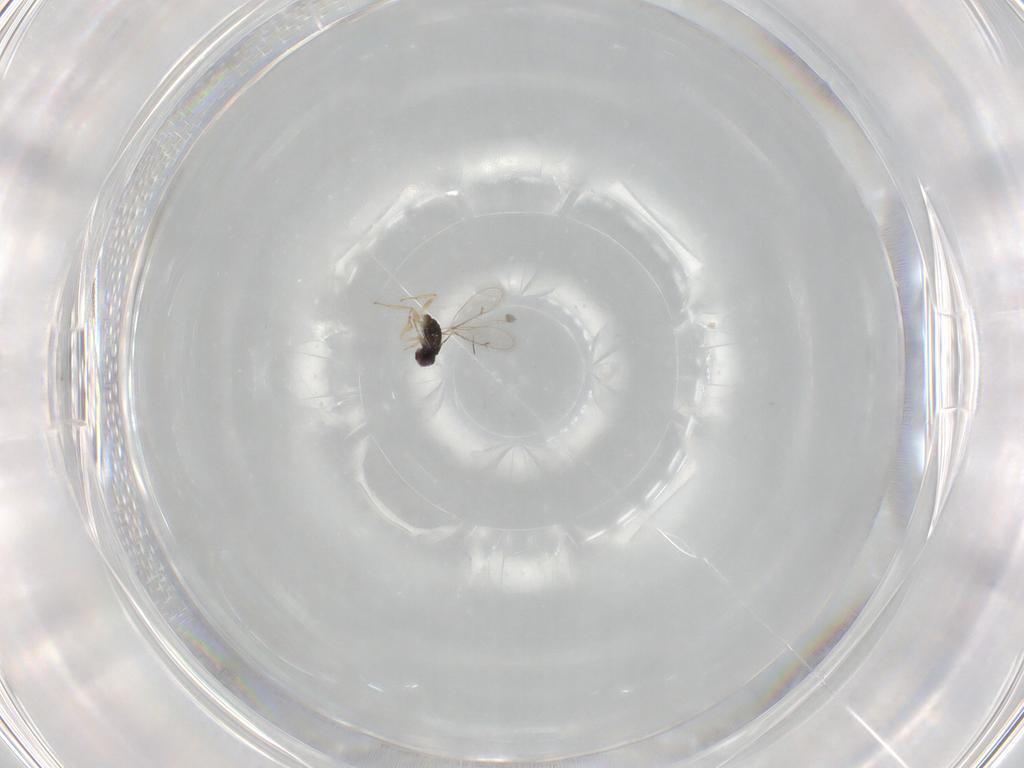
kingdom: Animalia
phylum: Arthropoda
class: Insecta
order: Hymenoptera
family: Eulophidae
